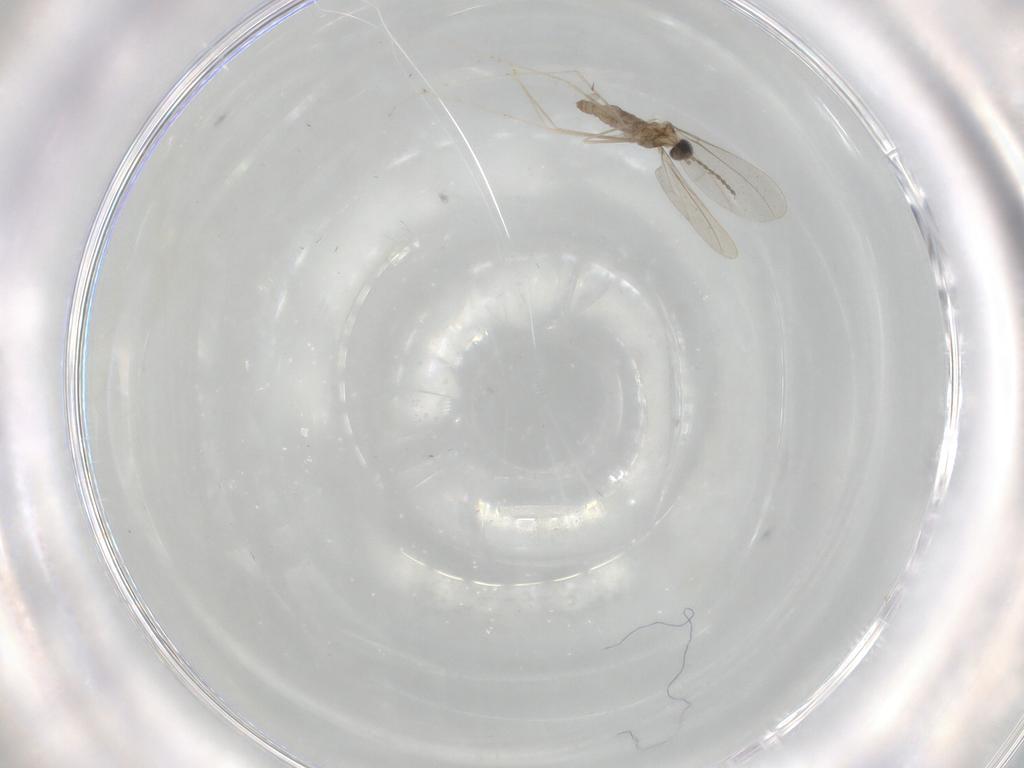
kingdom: Animalia
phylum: Arthropoda
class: Insecta
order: Diptera
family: Cecidomyiidae
